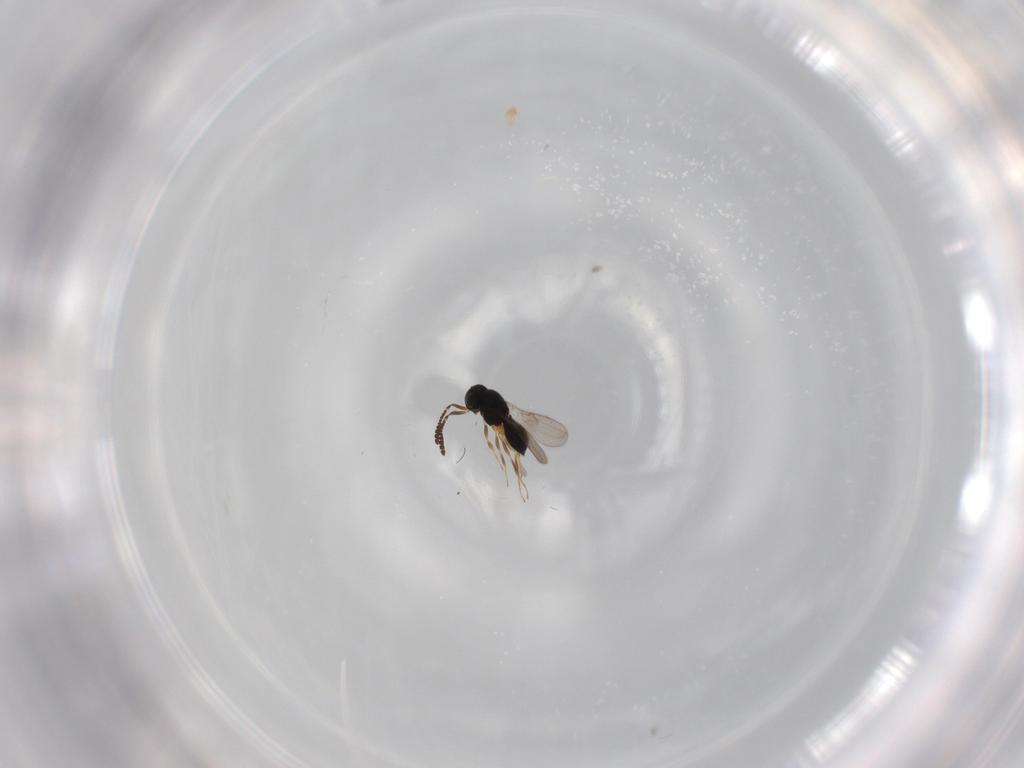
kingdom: Animalia
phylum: Arthropoda
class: Insecta
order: Hymenoptera
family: Scelionidae
